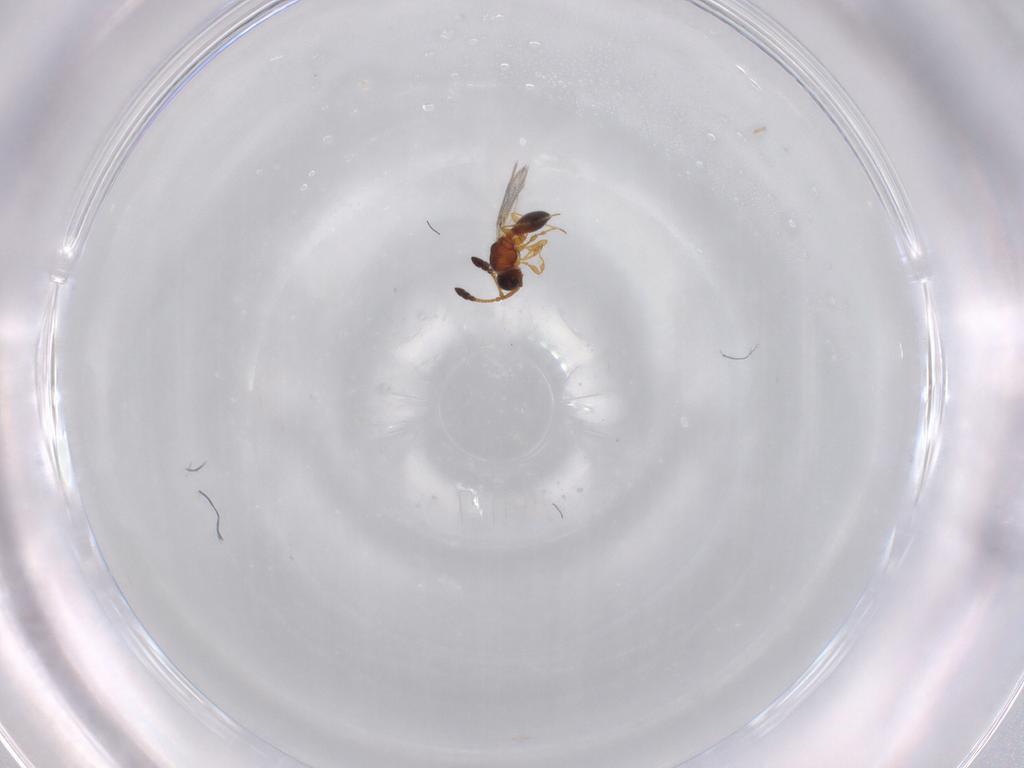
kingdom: Animalia
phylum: Arthropoda
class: Insecta
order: Hymenoptera
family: Diapriidae
